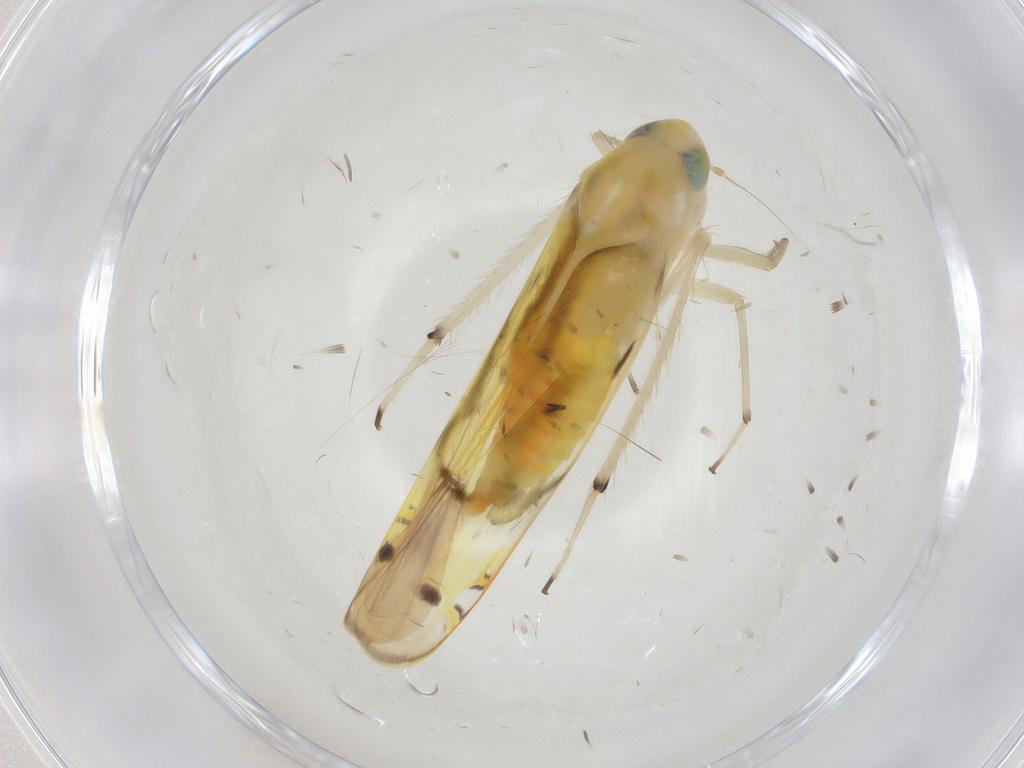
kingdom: Animalia
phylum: Arthropoda
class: Insecta
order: Hemiptera
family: Cicadellidae
